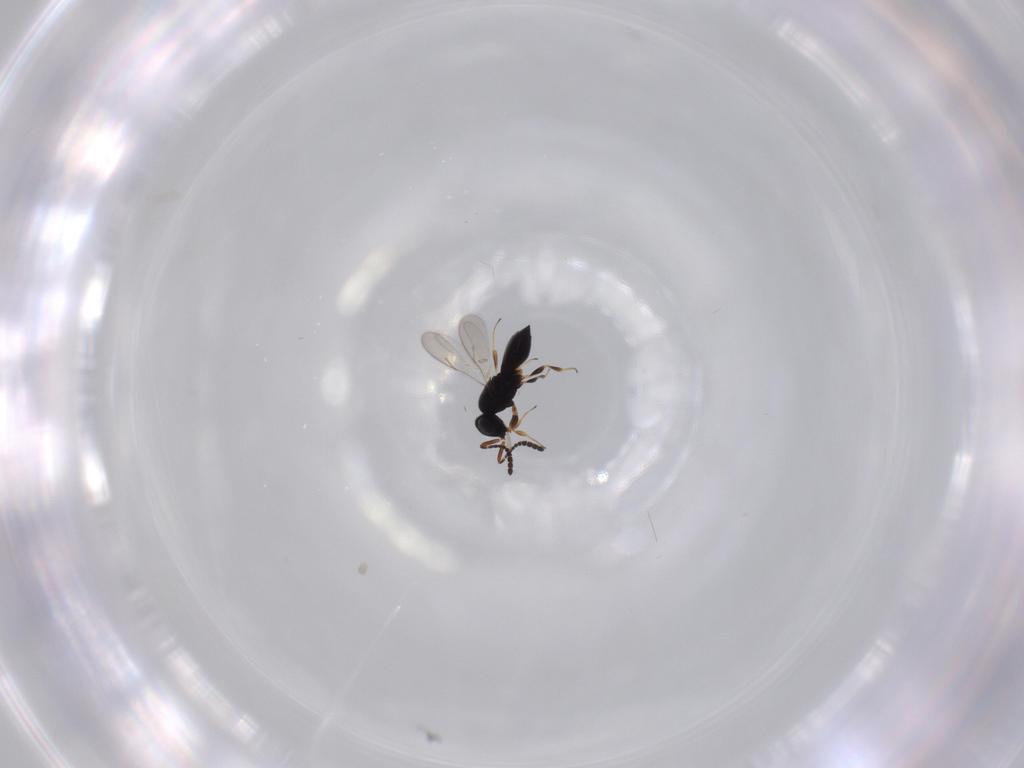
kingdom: Animalia
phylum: Arthropoda
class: Insecta
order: Hymenoptera
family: Scelionidae
